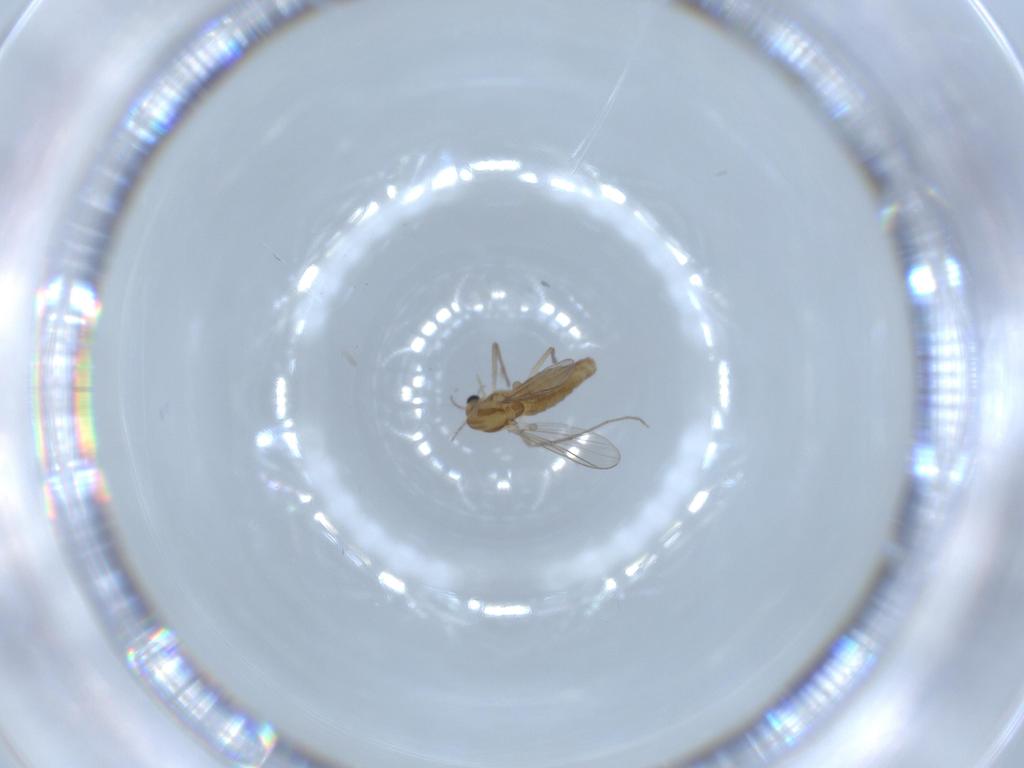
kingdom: Animalia
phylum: Arthropoda
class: Insecta
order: Diptera
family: Chironomidae
